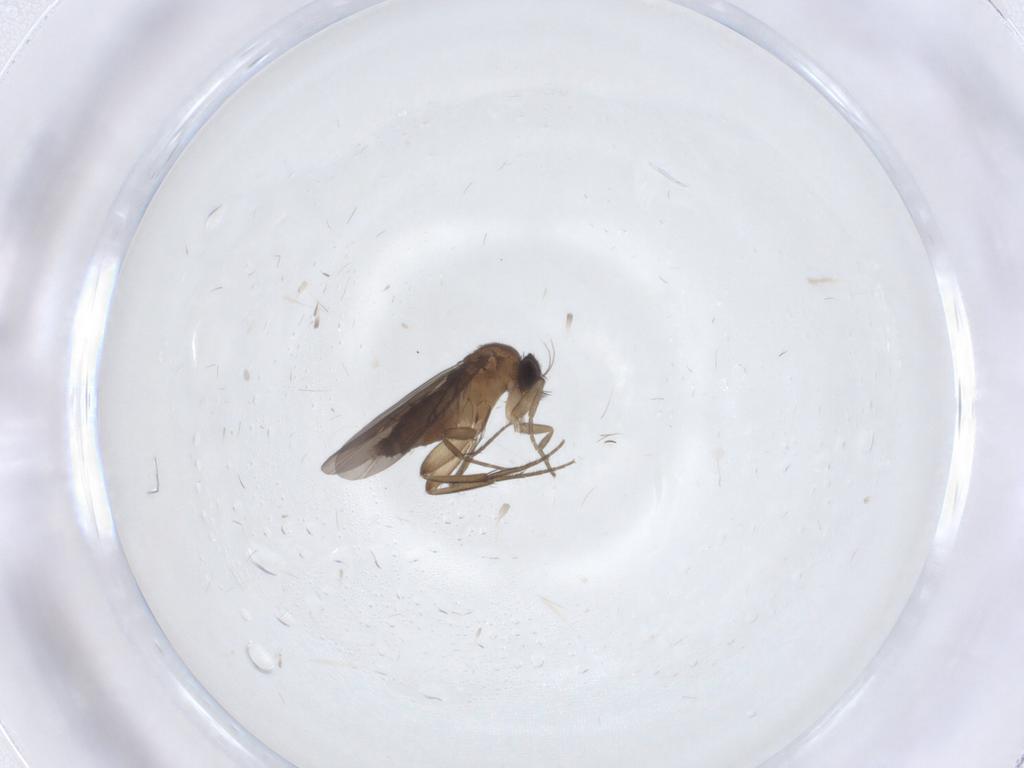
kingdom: Animalia
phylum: Arthropoda
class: Insecta
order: Diptera
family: Phoridae
